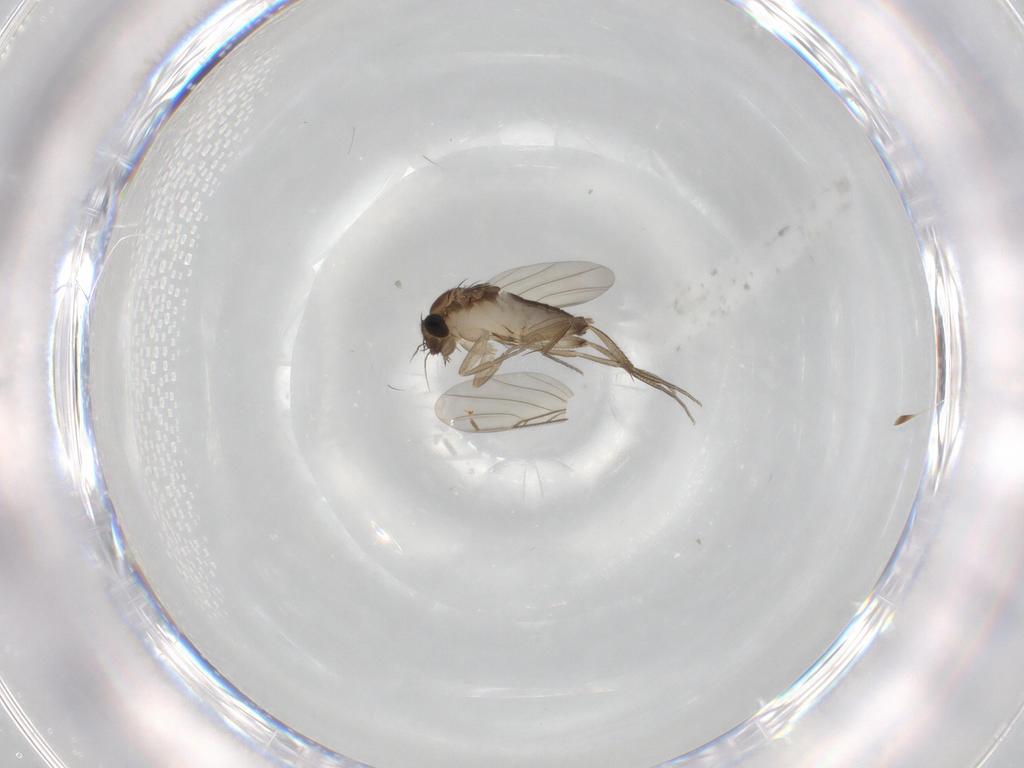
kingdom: Animalia
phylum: Arthropoda
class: Insecta
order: Diptera
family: Phoridae
